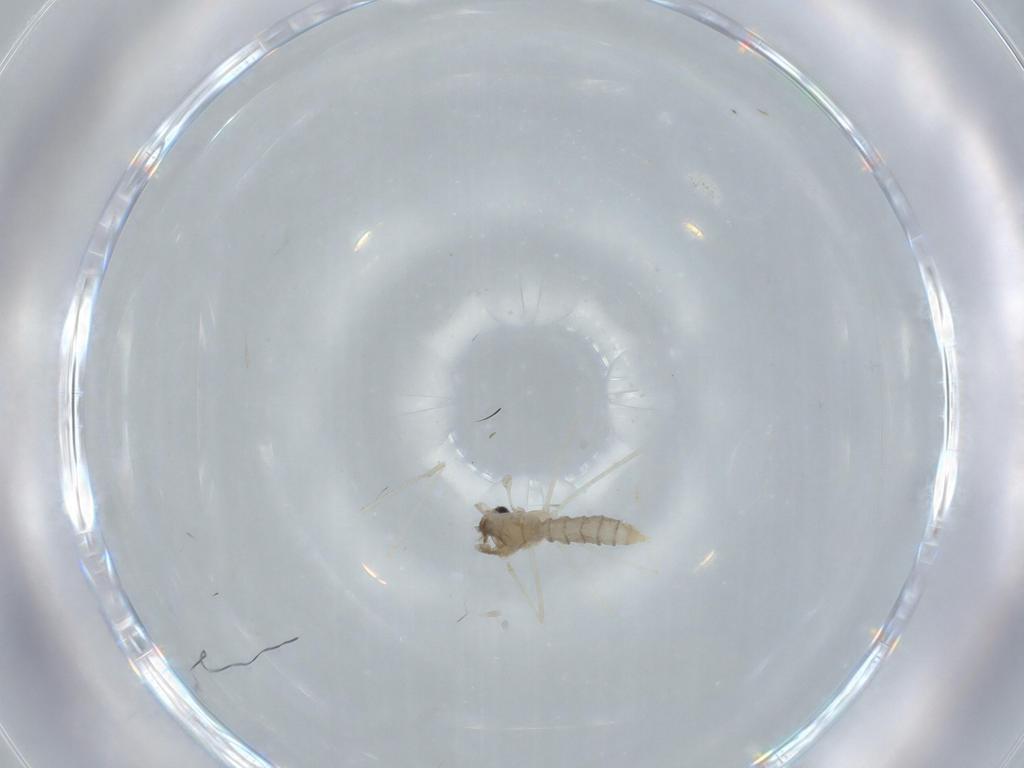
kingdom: Animalia
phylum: Arthropoda
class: Insecta
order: Diptera
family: Cecidomyiidae
